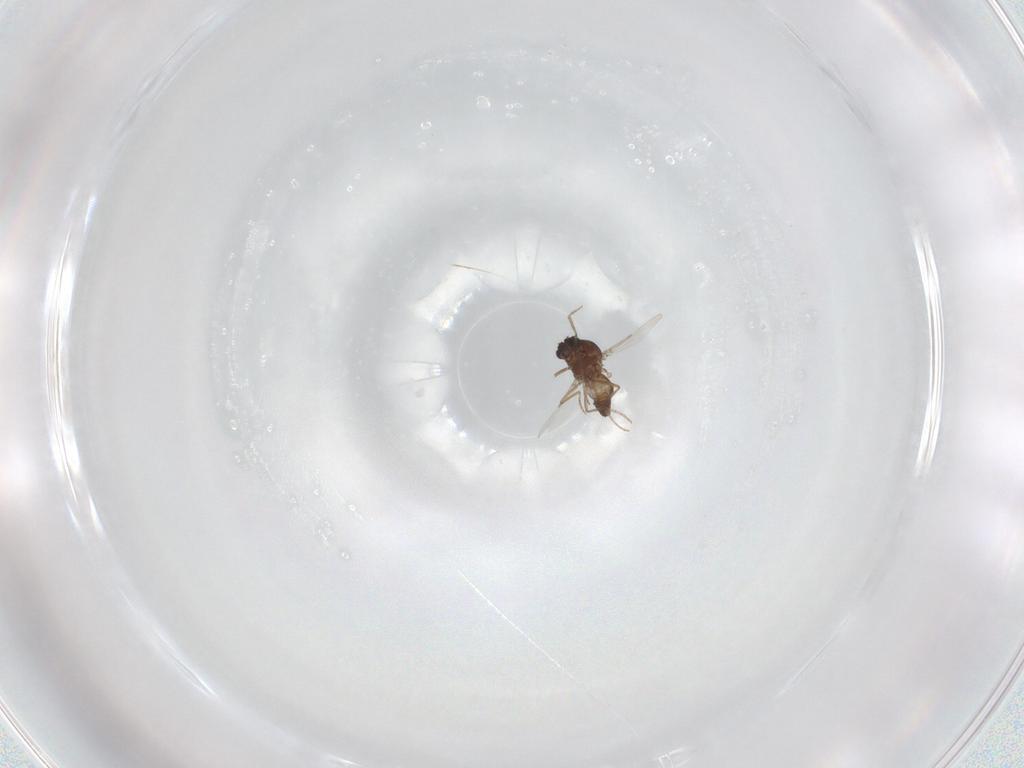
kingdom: Animalia
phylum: Arthropoda
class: Insecta
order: Diptera
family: Ceratopogonidae
